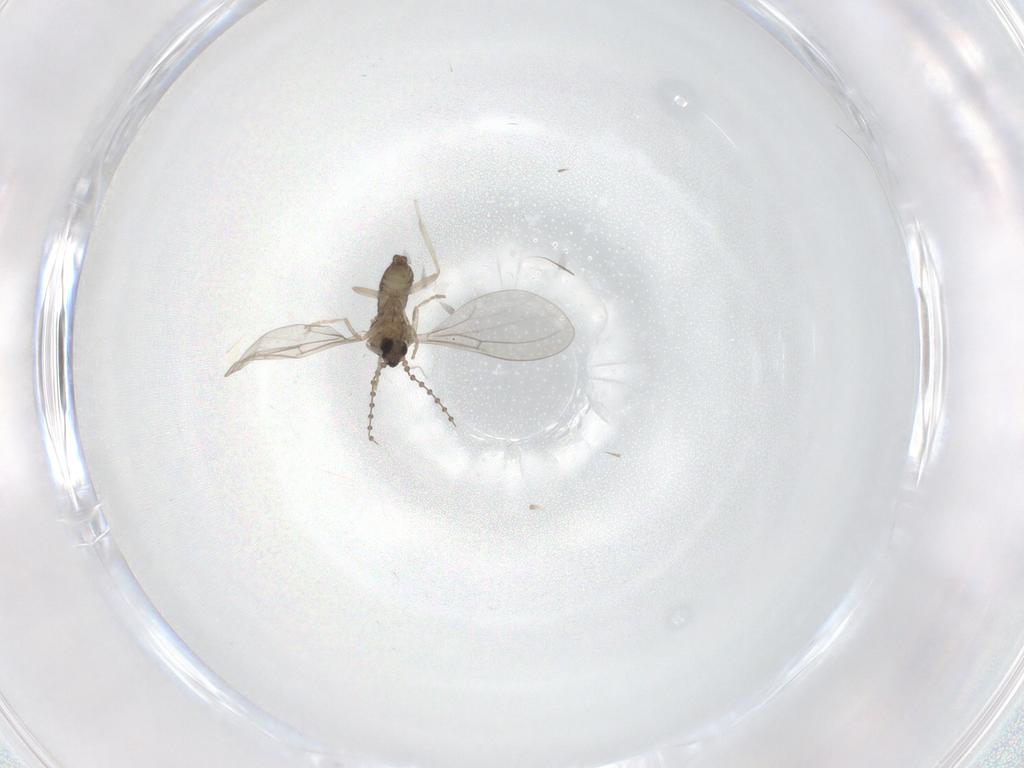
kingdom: Animalia
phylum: Arthropoda
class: Insecta
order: Diptera
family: Cecidomyiidae
